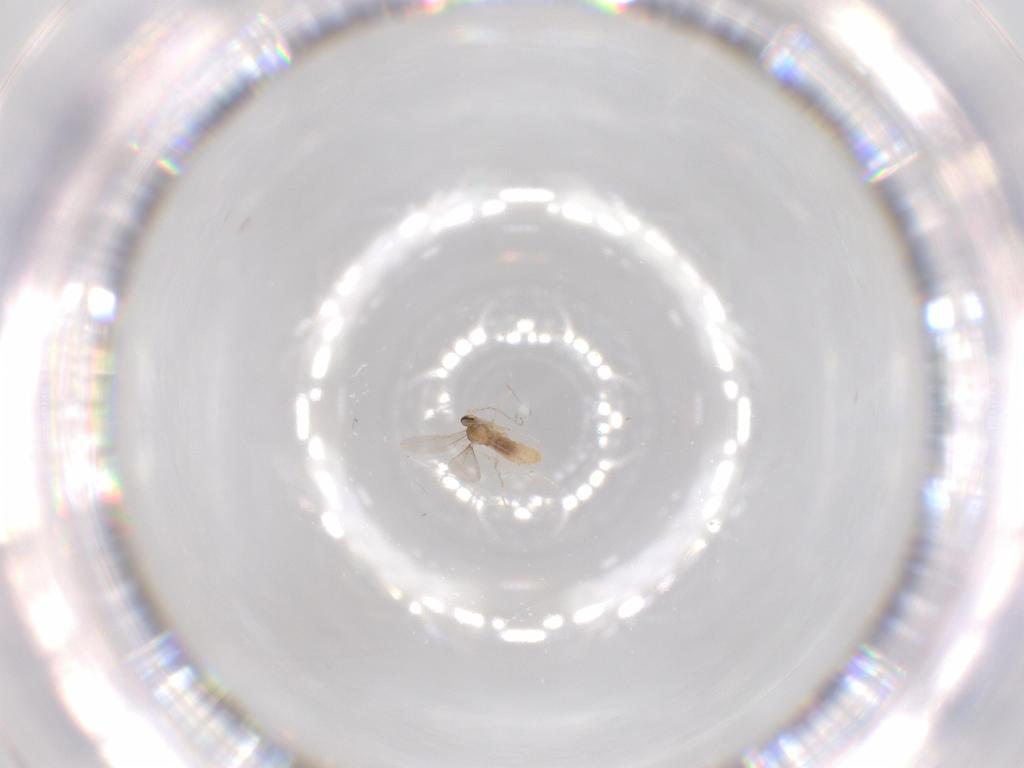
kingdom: Animalia
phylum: Arthropoda
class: Insecta
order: Diptera
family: Cecidomyiidae
